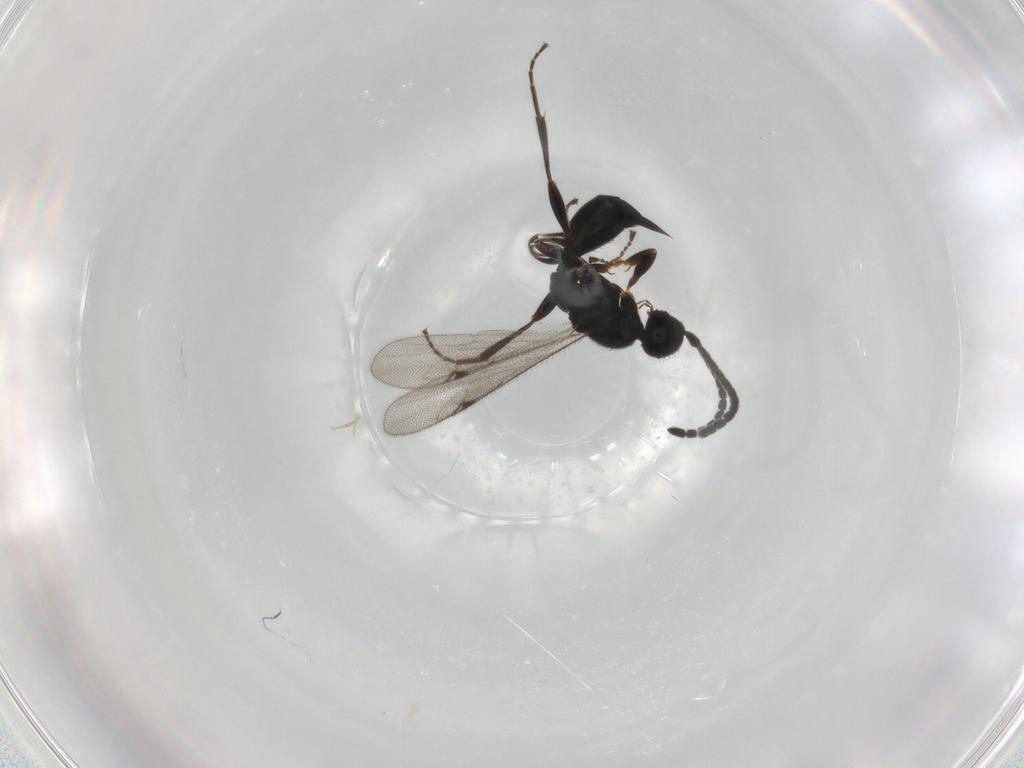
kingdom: Animalia
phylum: Arthropoda
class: Insecta
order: Hymenoptera
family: Proctotrupidae
